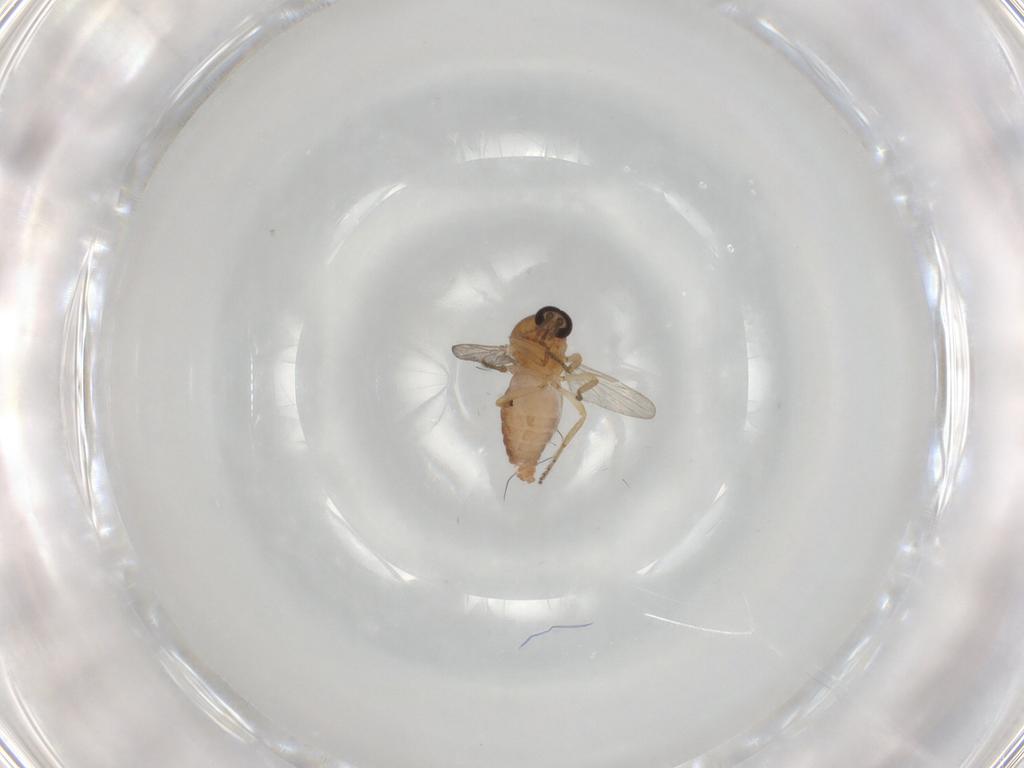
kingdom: Animalia
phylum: Arthropoda
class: Insecta
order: Diptera
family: Ceratopogonidae
